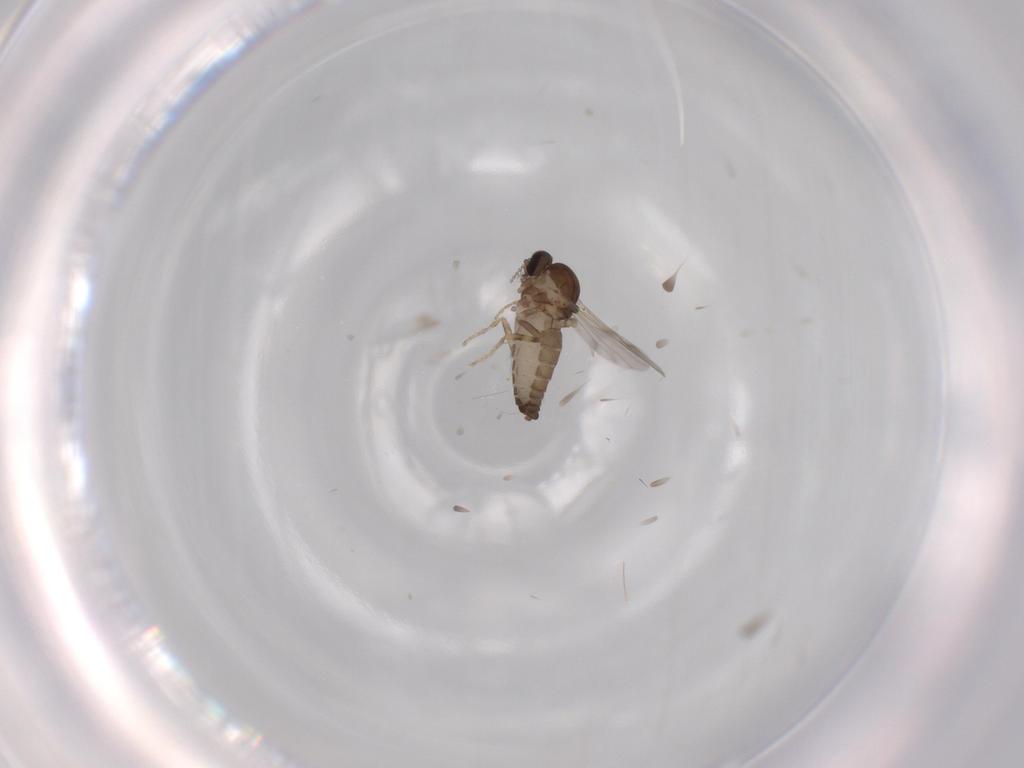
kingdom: Animalia
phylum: Arthropoda
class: Insecta
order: Diptera
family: Ceratopogonidae
